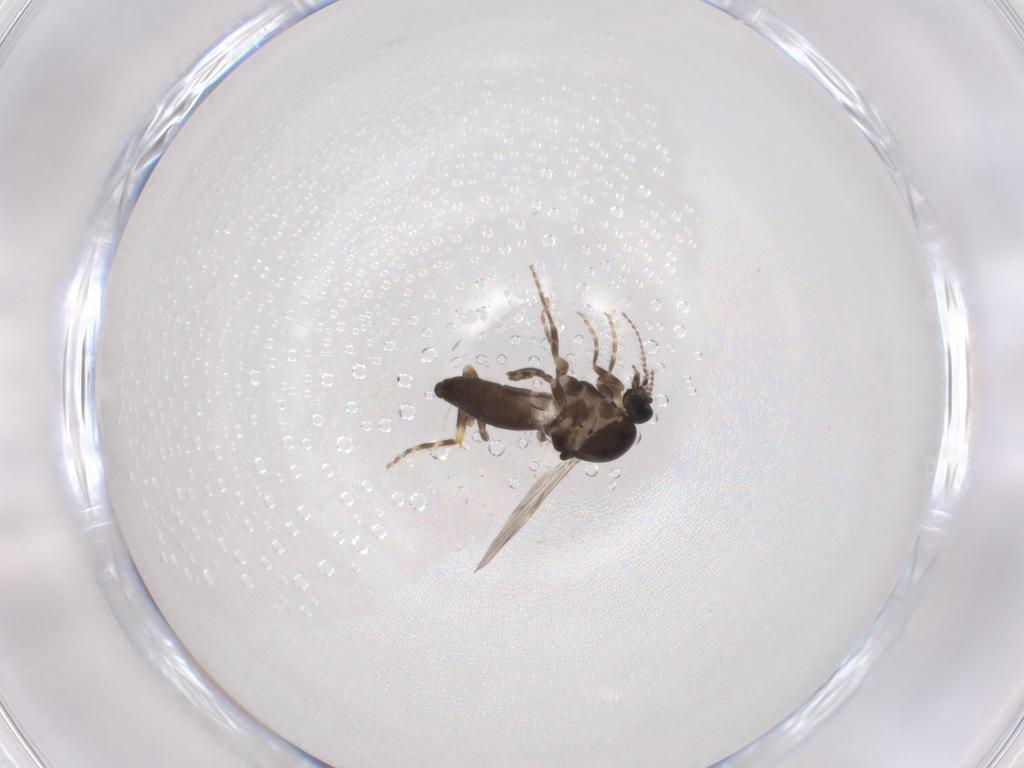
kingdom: Animalia
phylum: Arthropoda
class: Insecta
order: Diptera
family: Ceratopogonidae
